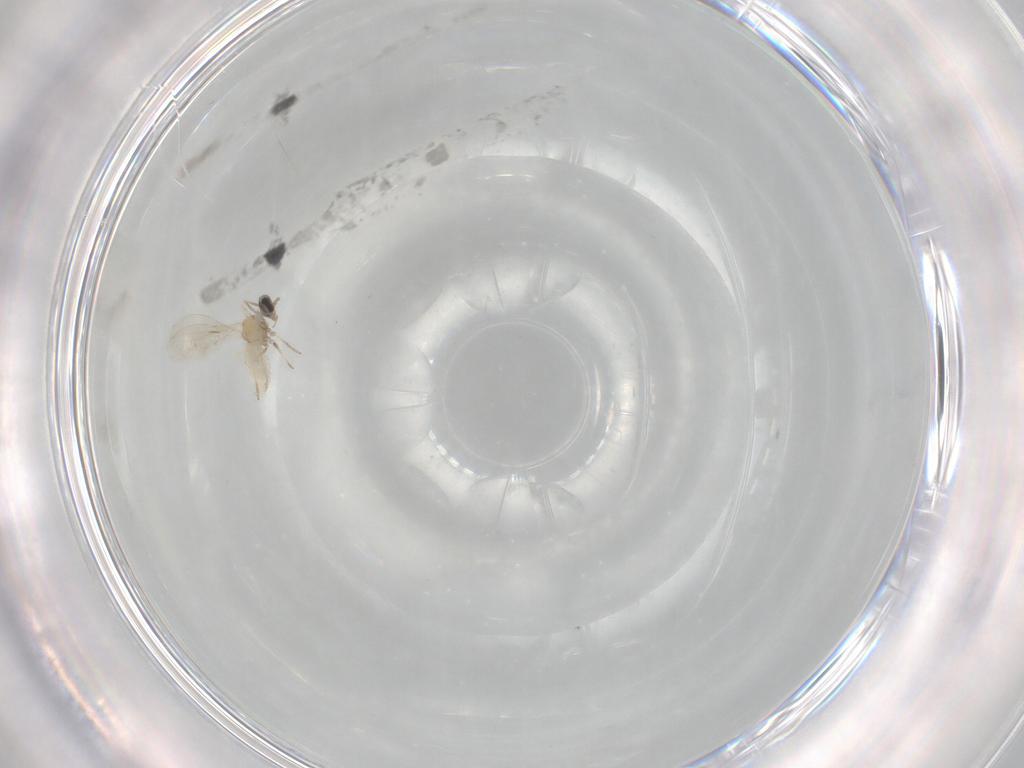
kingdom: Animalia
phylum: Arthropoda
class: Insecta
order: Diptera
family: Cecidomyiidae
